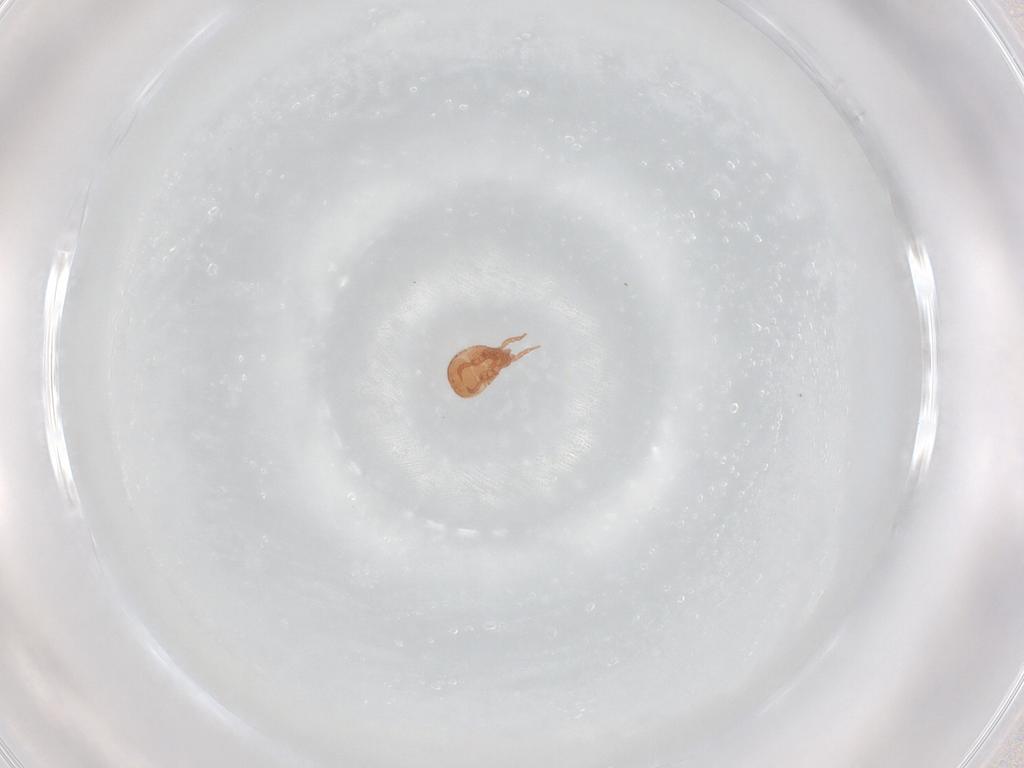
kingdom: Animalia
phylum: Arthropoda
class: Arachnida
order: Mesostigmata
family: Zerconidae
